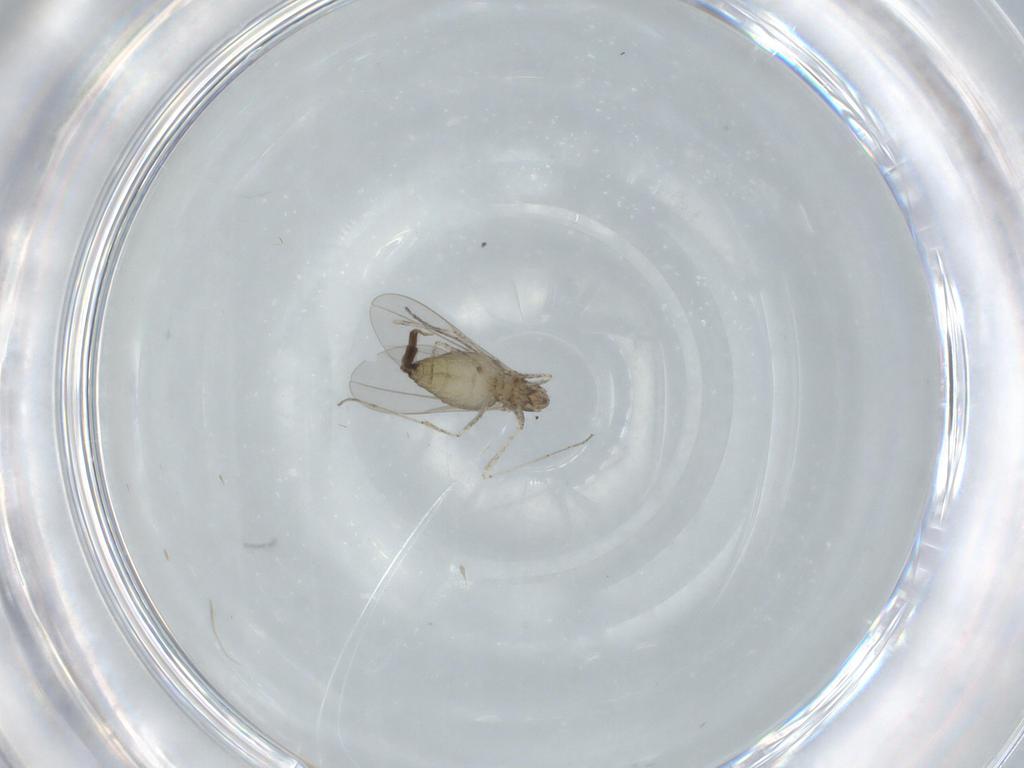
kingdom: Animalia
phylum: Arthropoda
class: Insecta
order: Diptera
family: Cecidomyiidae
